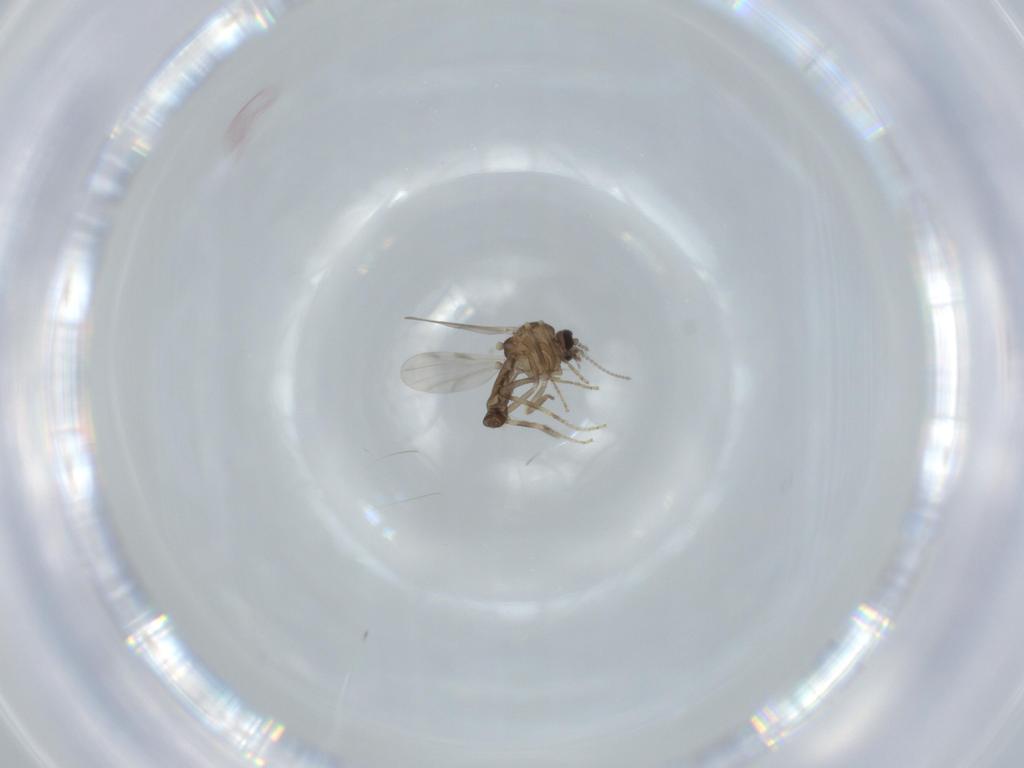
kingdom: Animalia
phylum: Arthropoda
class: Insecta
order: Diptera
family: Ceratopogonidae
